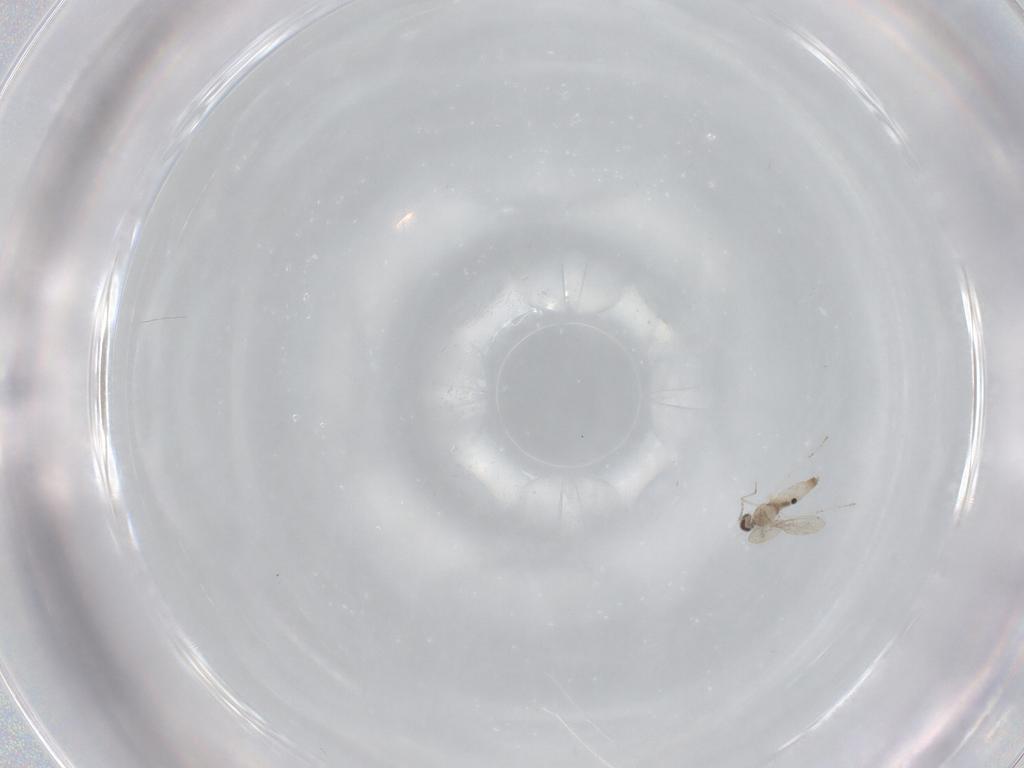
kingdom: Animalia
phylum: Arthropoda
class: Insecta
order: Diptera
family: Cecidomyiidae
